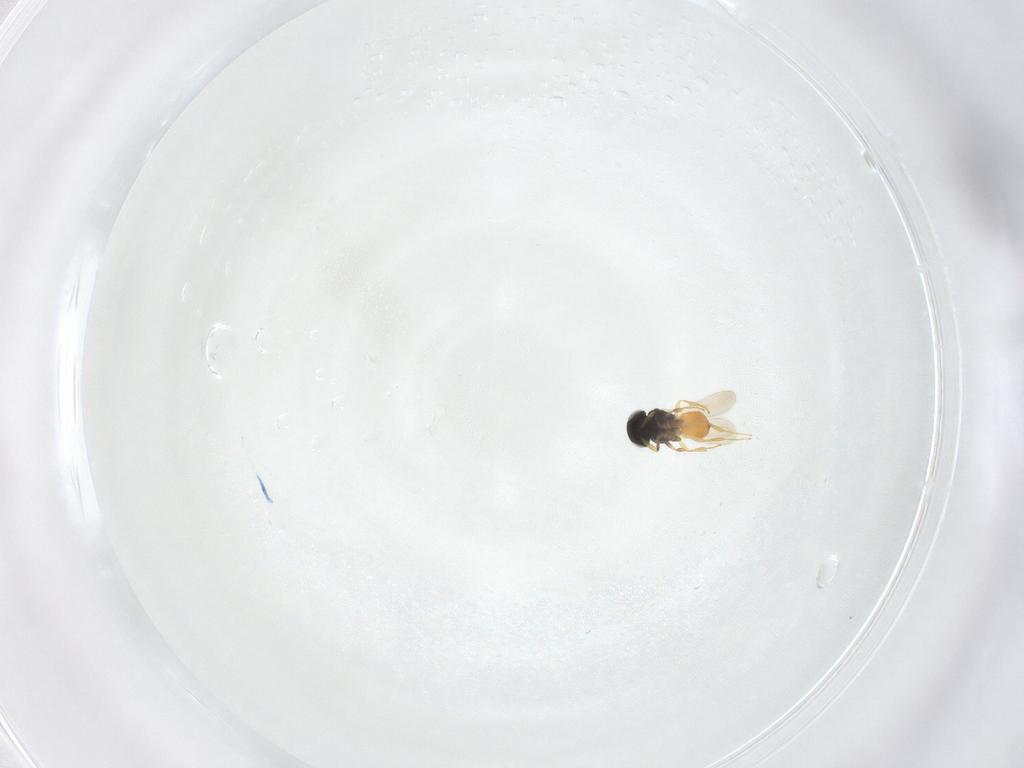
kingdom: Animalia
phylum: Arthropoda
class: Insecta
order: Hymenoptera
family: Scelionidae
